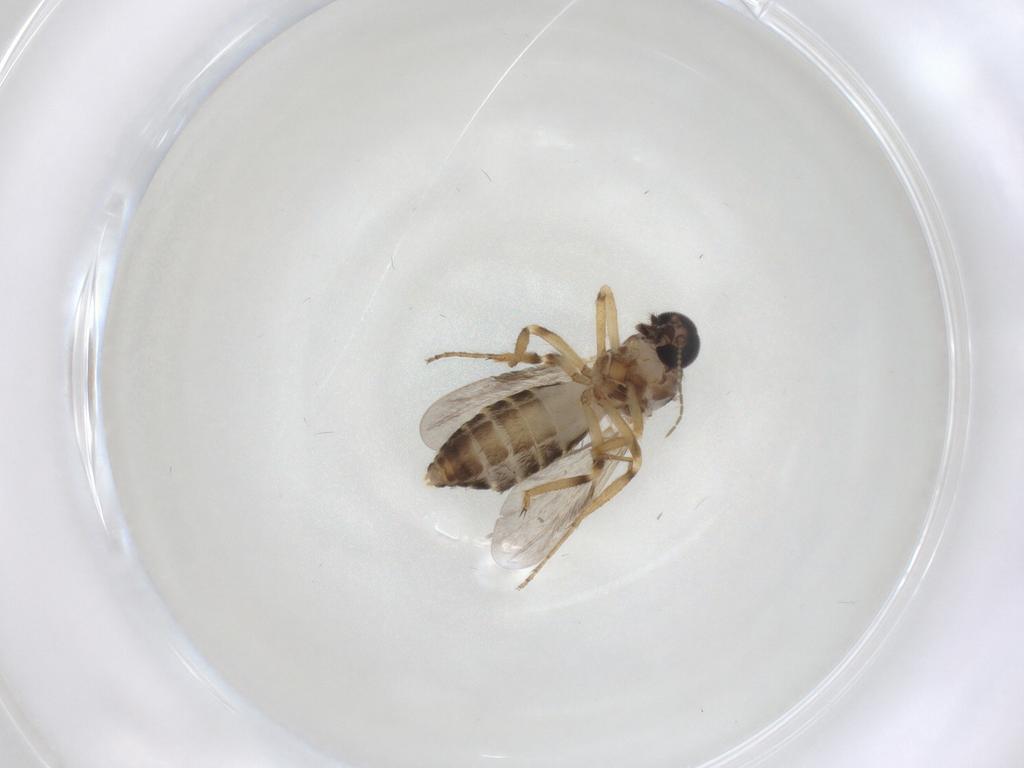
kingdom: Animalia
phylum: Arthropoda
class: Insecta
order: Diptera
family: Ceratopogonidae
